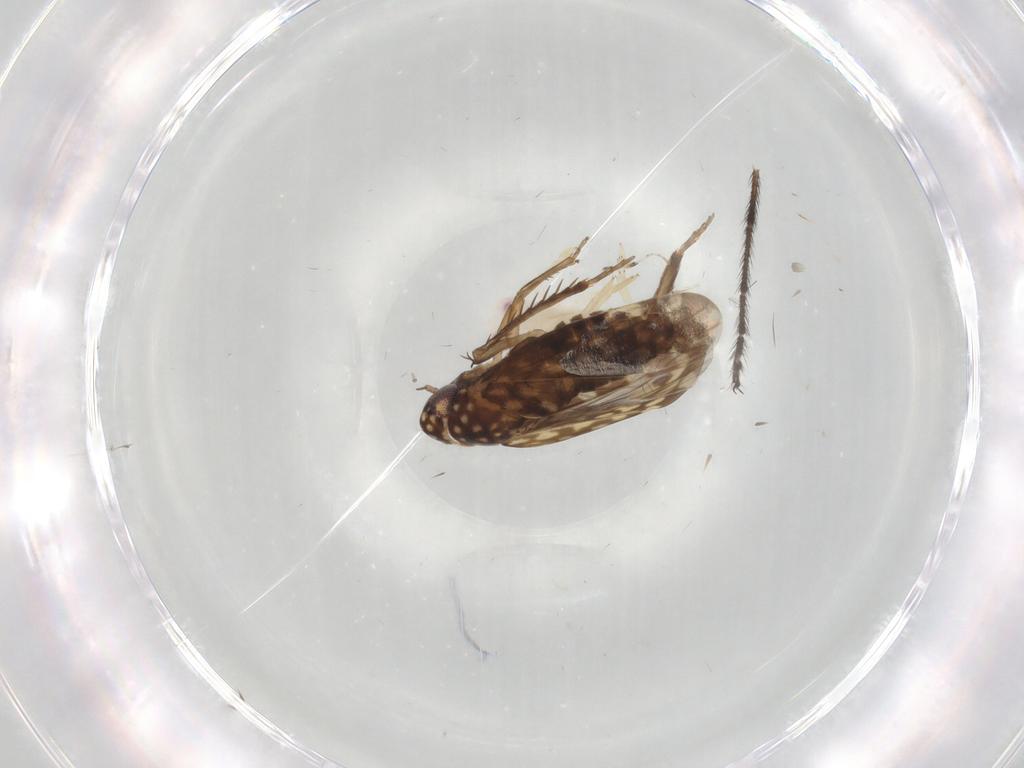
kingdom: Animalia
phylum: Arthropoda
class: Insecta
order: Hemiptera
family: Cicadellidae
